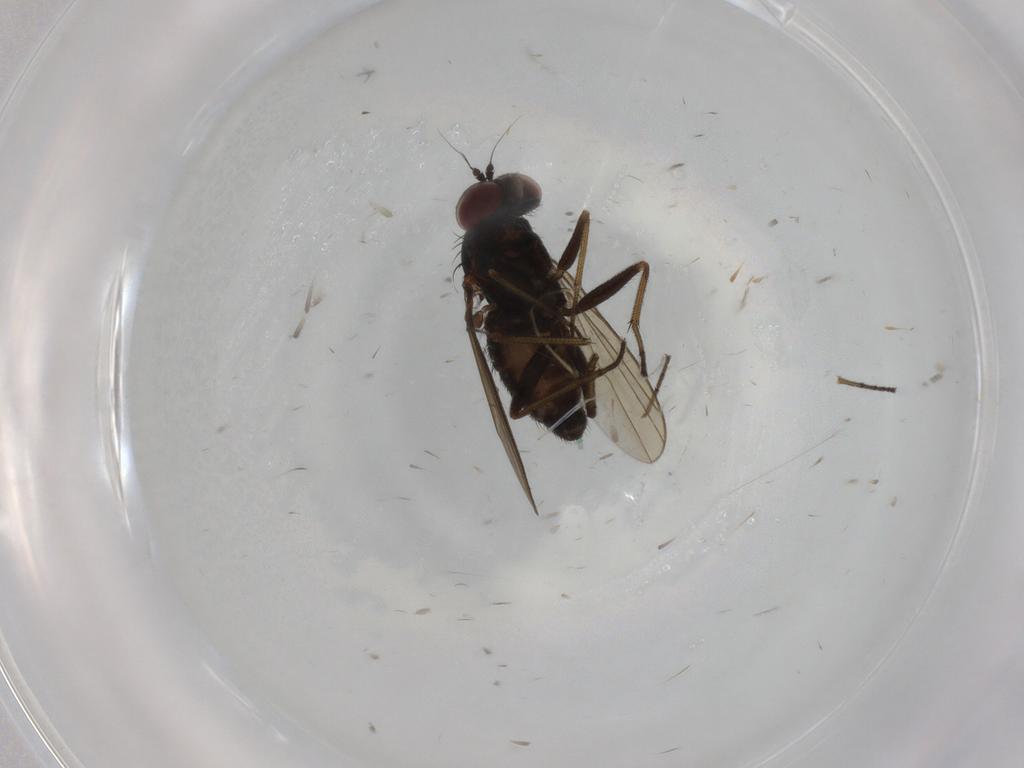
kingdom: Animalia
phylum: Arthropoda
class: Insecta
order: Diptera
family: Dolichopodidae
